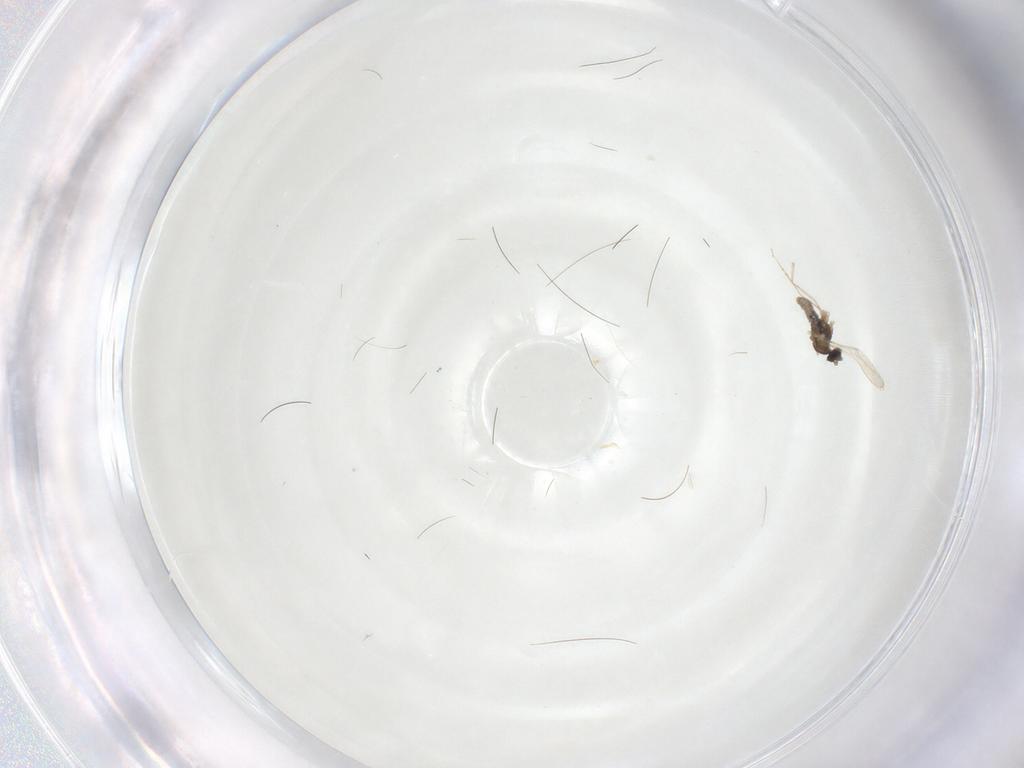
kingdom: Animalia
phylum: Arthropoda
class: Insecta
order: Diptera
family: Cecidomyiidae
